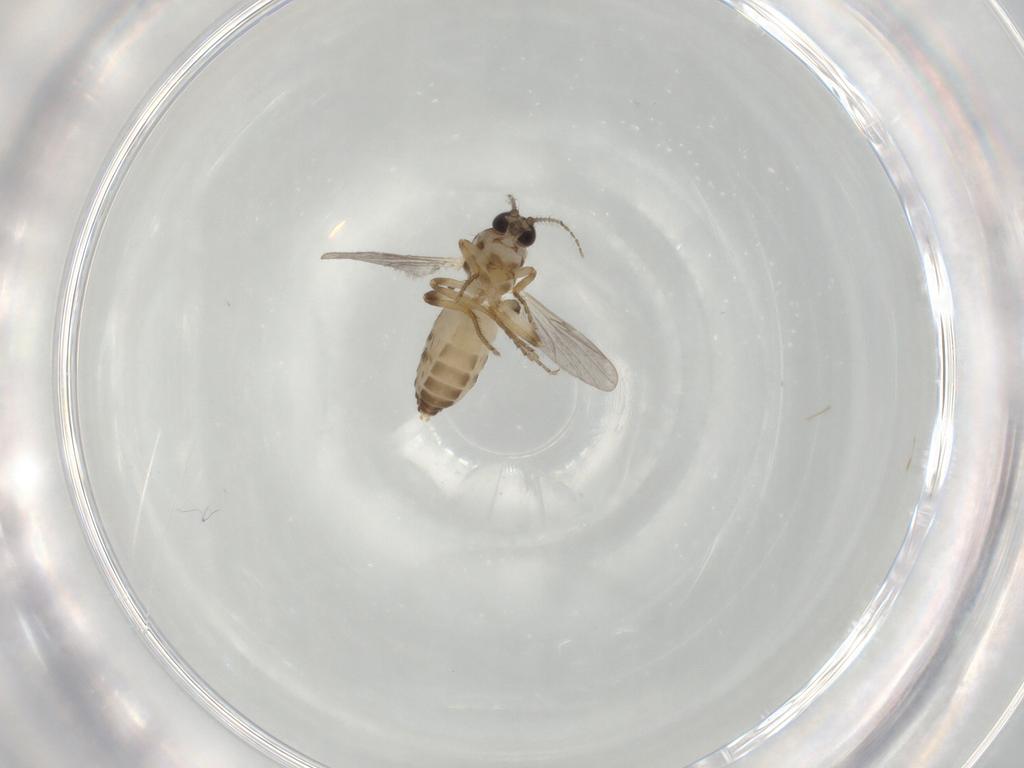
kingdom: Animalia
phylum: Arthropoda
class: Insecta
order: Diptera
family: Ceratopogonidae
